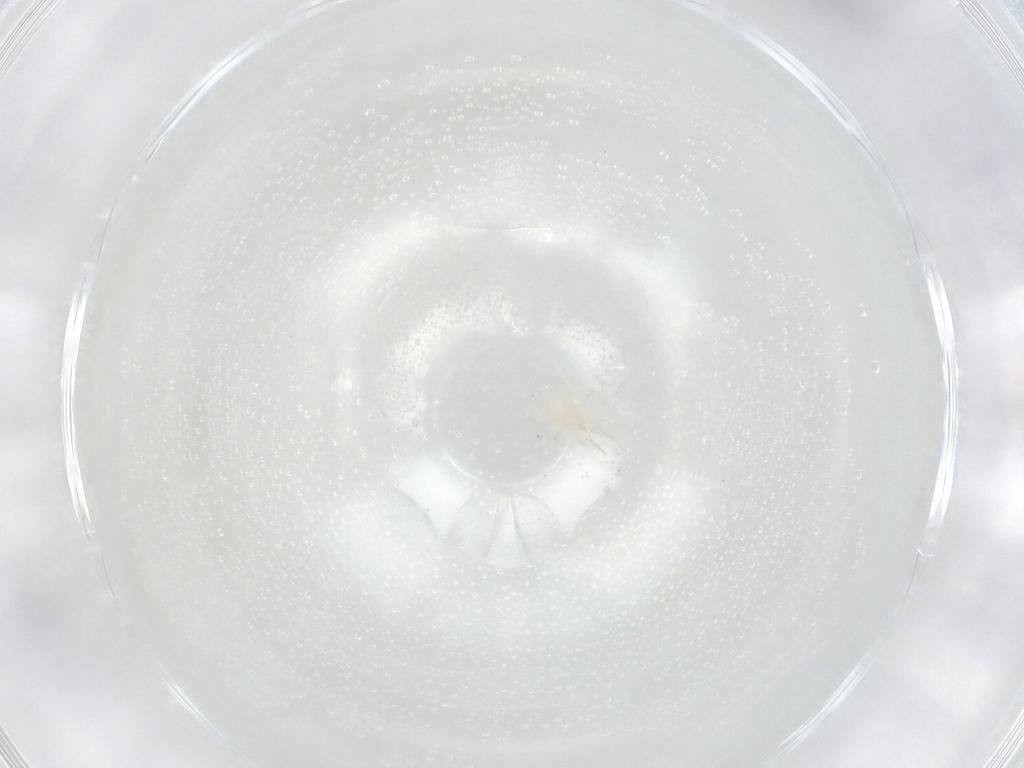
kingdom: Animalia
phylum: Arthropoda
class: Arachnida
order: Mesostigmata
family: Phytoseiidae
